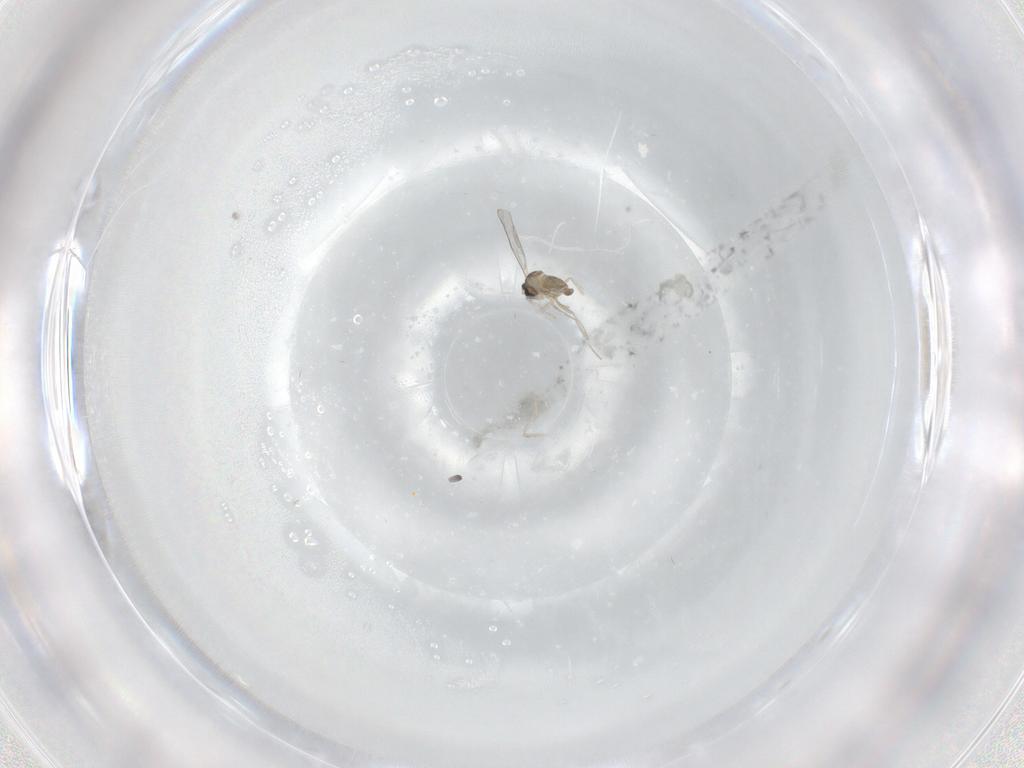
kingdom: Animalia
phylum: Arthropoda
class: Insecta
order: Diptera
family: Cecidomyiidae
